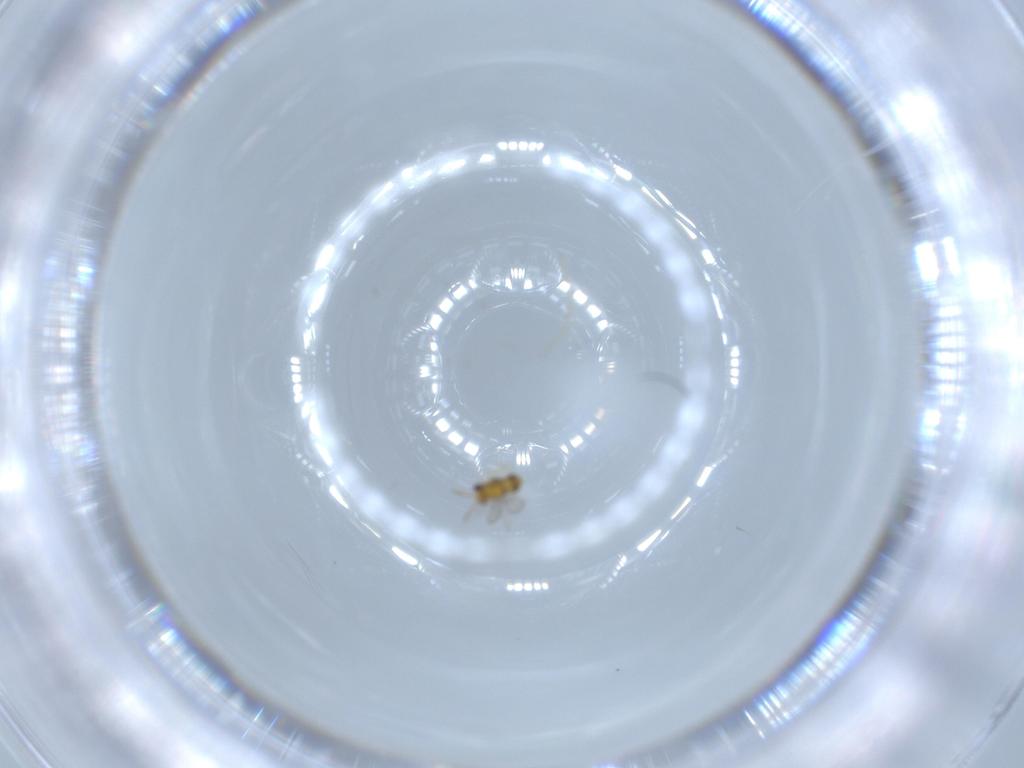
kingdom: Animalia
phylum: Arthropoda
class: Insecta
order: Hymenoptera
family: Aphelinidae
